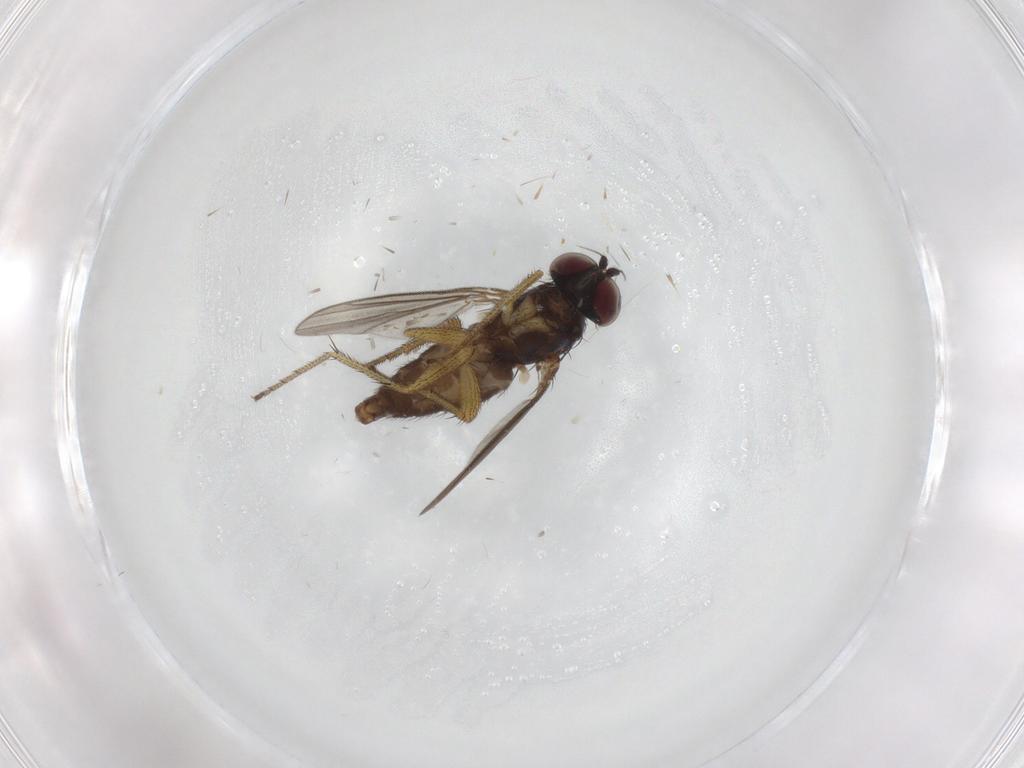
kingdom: Animalia
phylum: Arthropoda
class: Insecta
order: Diptera
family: Dolichopodidae
